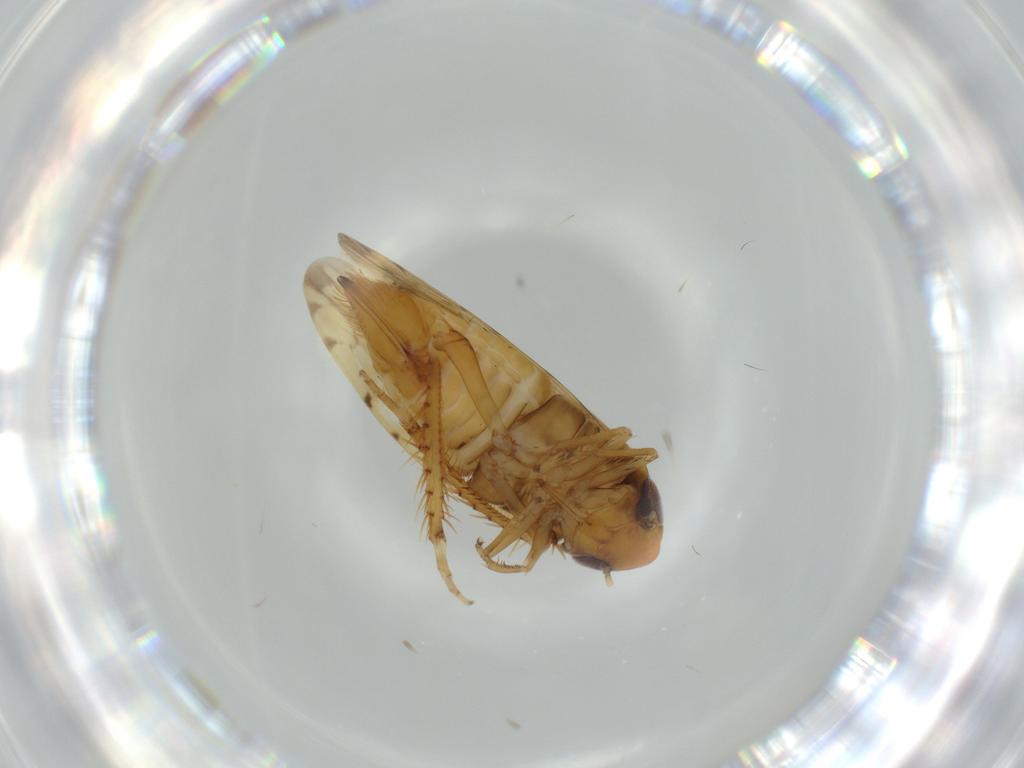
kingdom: Animalia
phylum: Arthropoda
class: Insecta
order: Hemiptera
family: Cicadellidae
